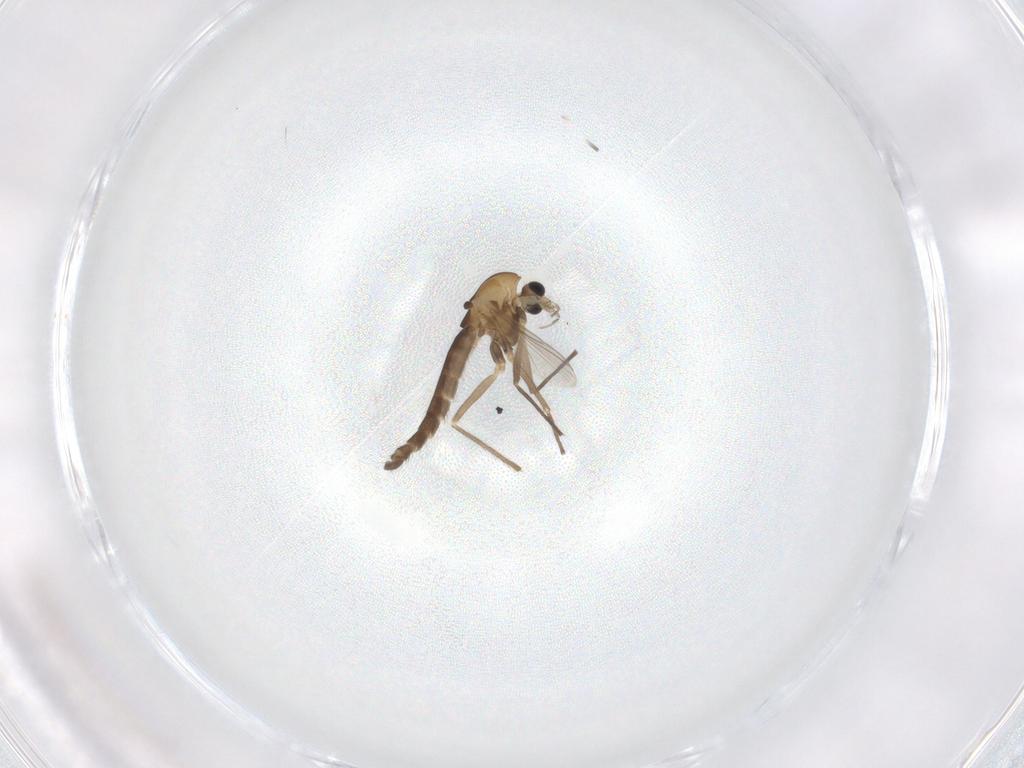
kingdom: Animalia
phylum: Arthropoda
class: Insecta
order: Diptera
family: Chironomidae
